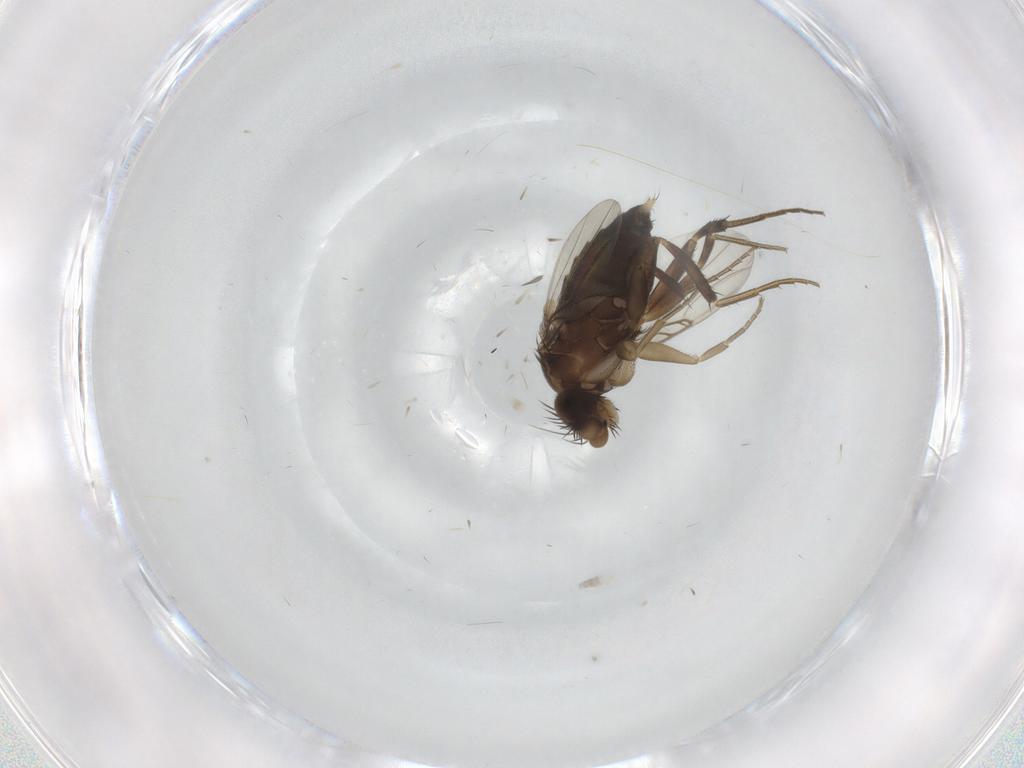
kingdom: Animalia
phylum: Arthropoda
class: Insecta
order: Diptera
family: Phoridae
